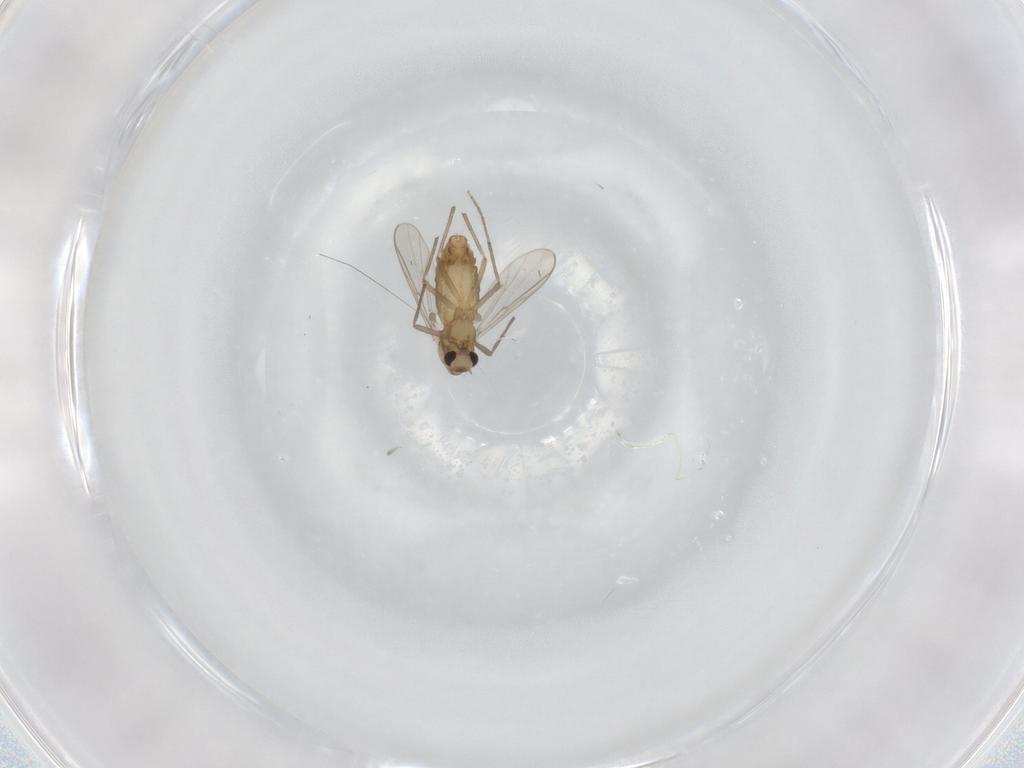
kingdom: Animalia
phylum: Arthropoda
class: Insecta
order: Diptera
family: Chironomidae
